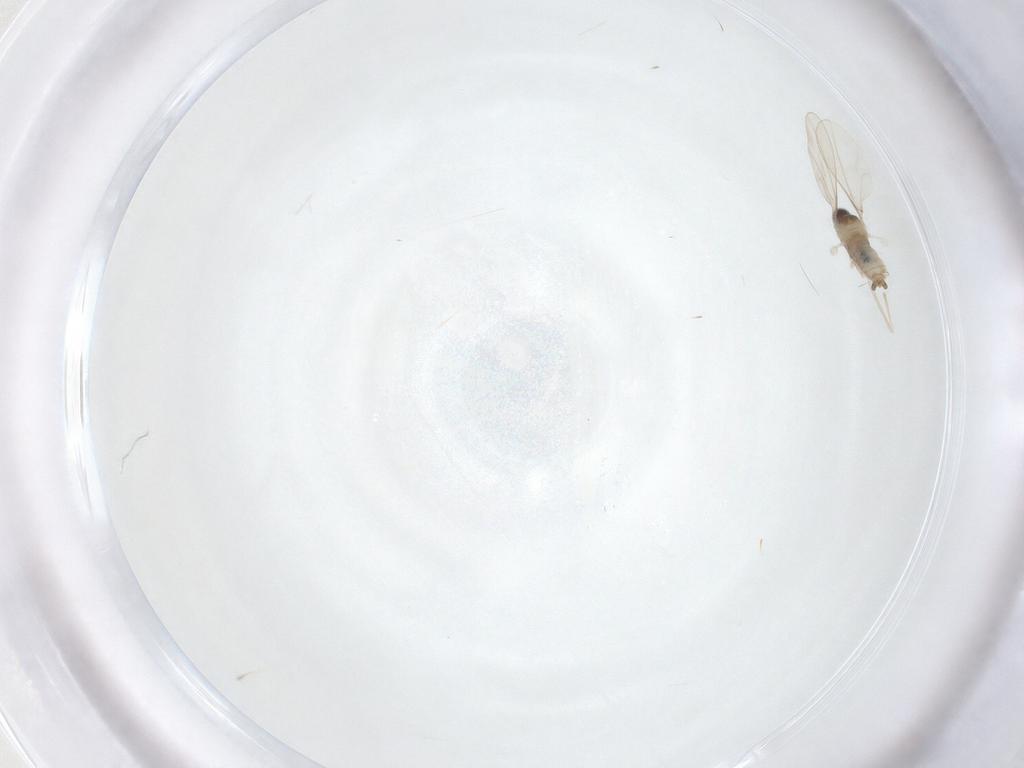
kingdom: Animalia
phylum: Arthropoda
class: Insecta
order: Diptera
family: Cecidomyiidae
